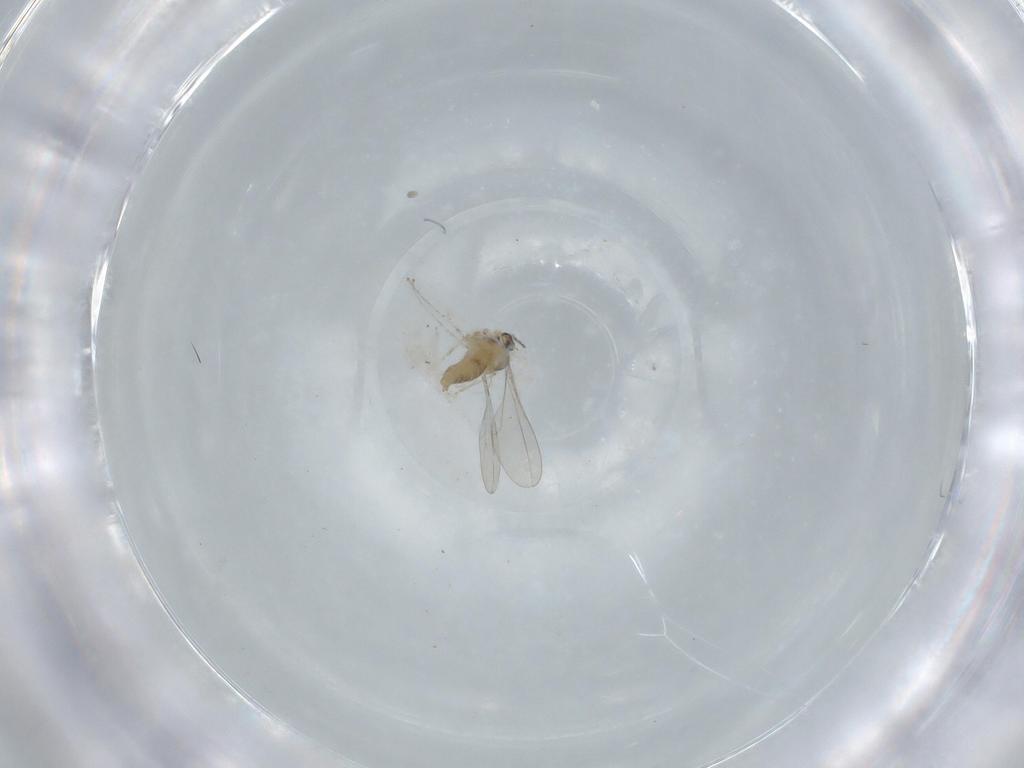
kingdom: Animalia
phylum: Arthropoda
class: Insecta
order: Diptera
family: Cecidomyiidae
